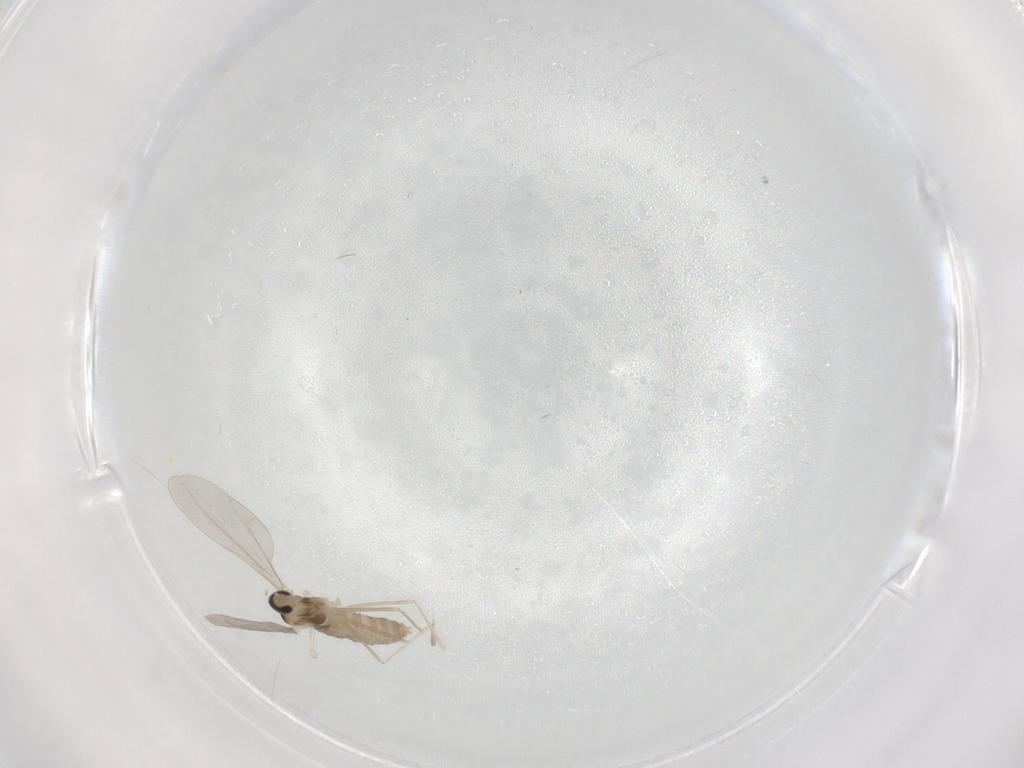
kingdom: Animalia
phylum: Arthropoda
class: Insecta
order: Diptera
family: Cecidomyiidae
